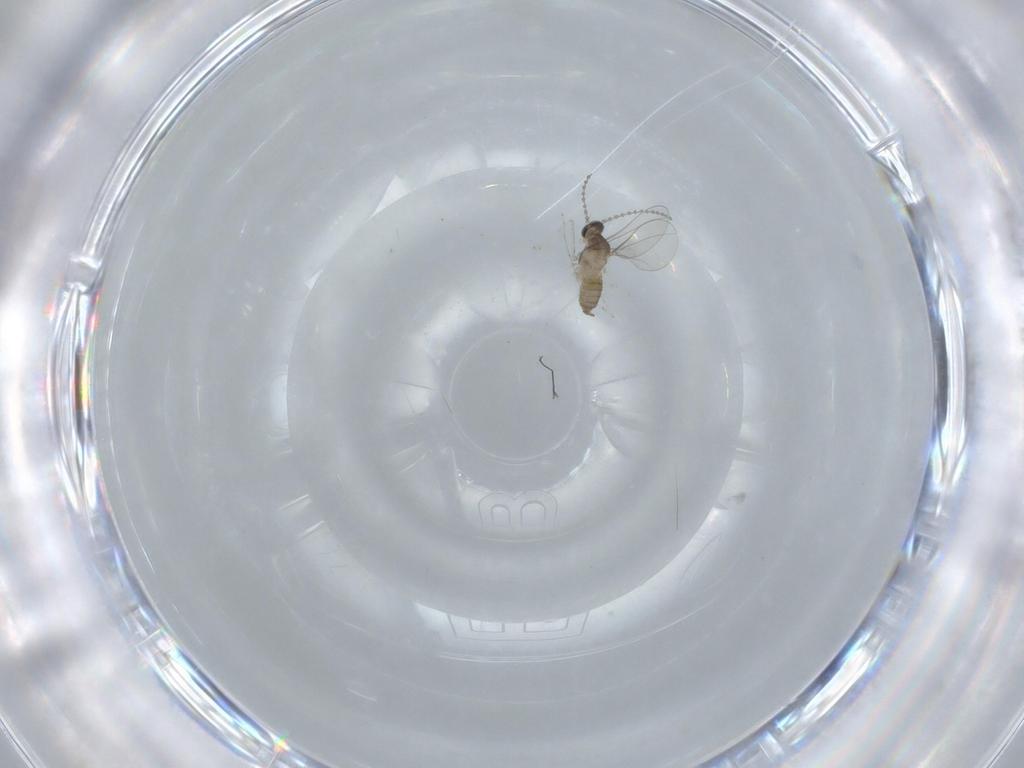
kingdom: Animalia
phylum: Arthropoda
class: Insecta
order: Diptera
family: Cecidomyiidae
